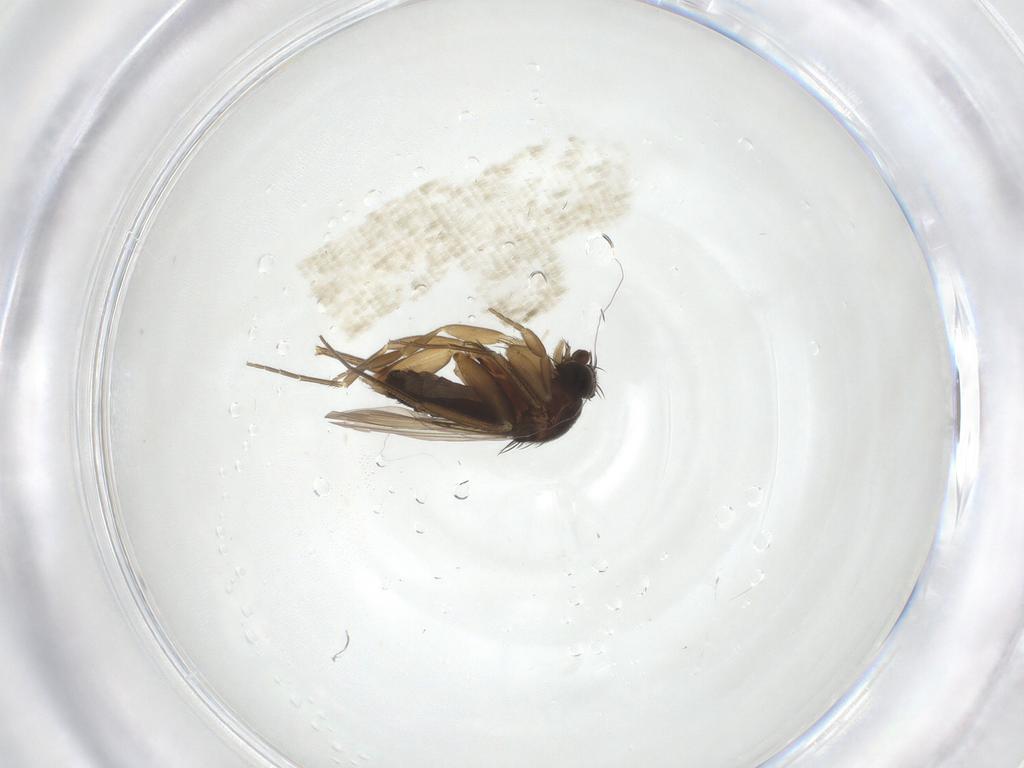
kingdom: Animalia
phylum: Arthropoda
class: Insecta
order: Diptera
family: Phoridae
